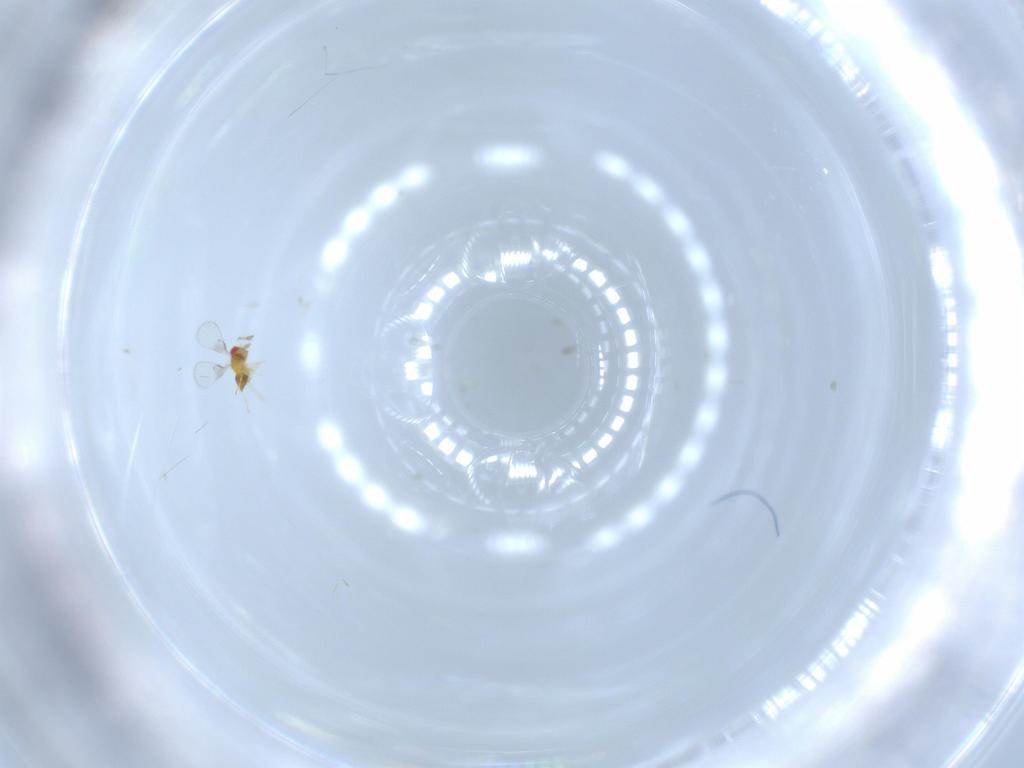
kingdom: Animalia
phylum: Arthropoda
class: Insecta
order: Hymenoptera
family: Trichogrammatidae
